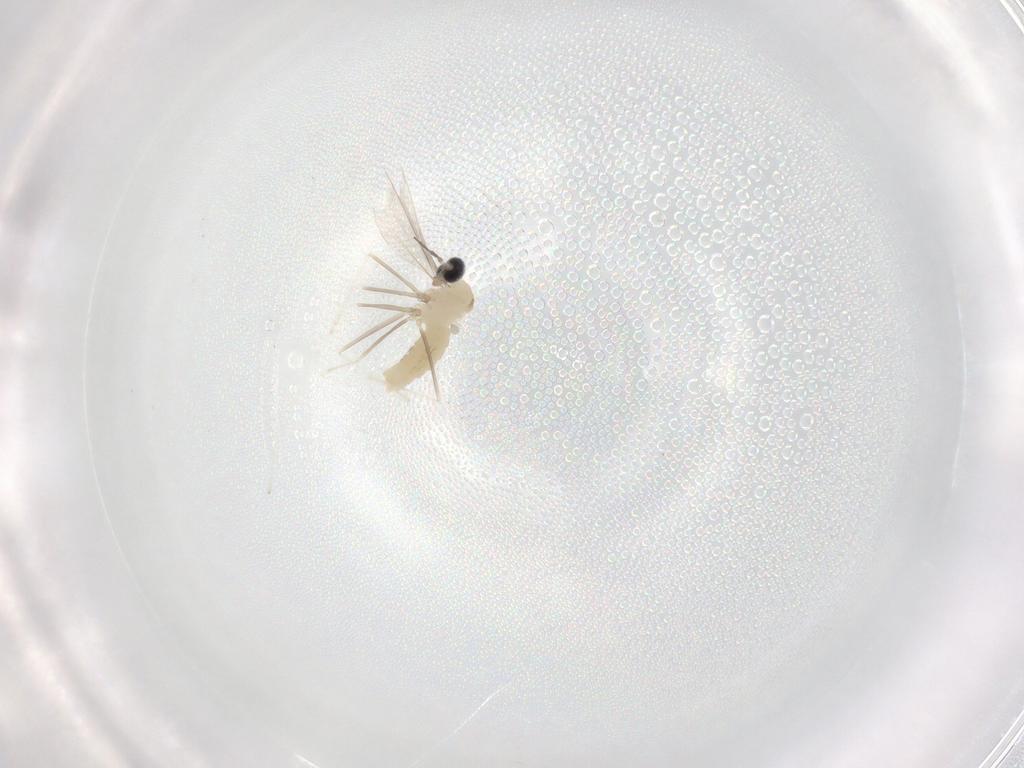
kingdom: Animalia
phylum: Arthropoda
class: Insecta
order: Diptera
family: Cecidomyiidae
